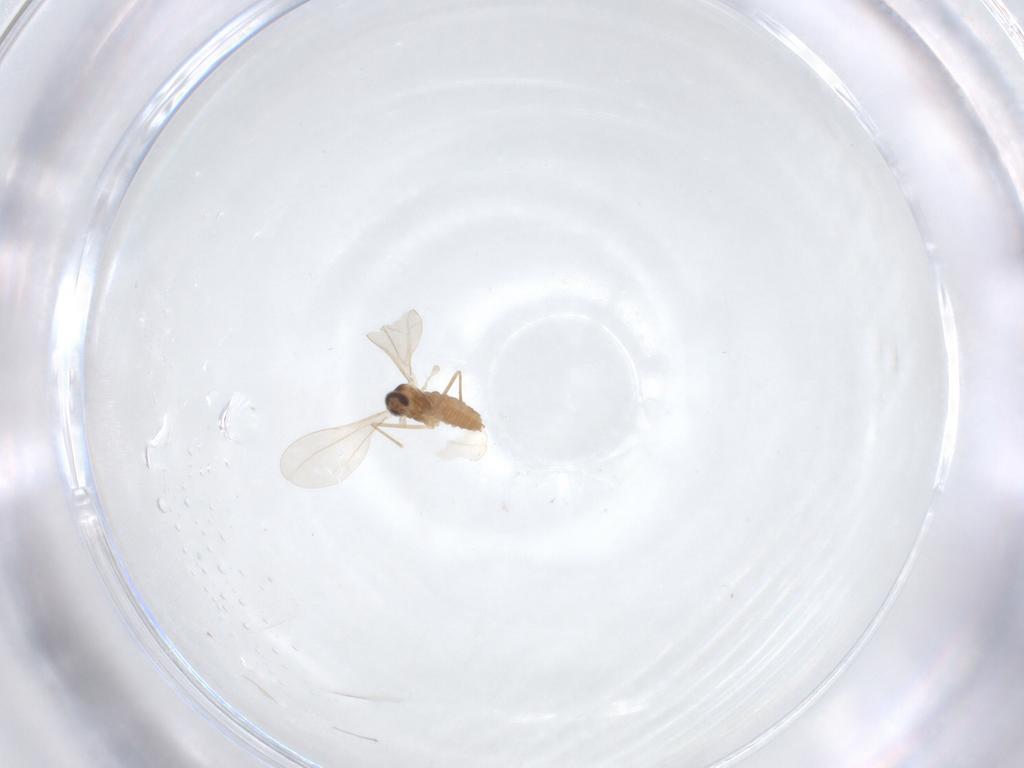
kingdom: Animalia
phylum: Arthropoda
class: Insecta
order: Diptera
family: Cecidomyiidae
